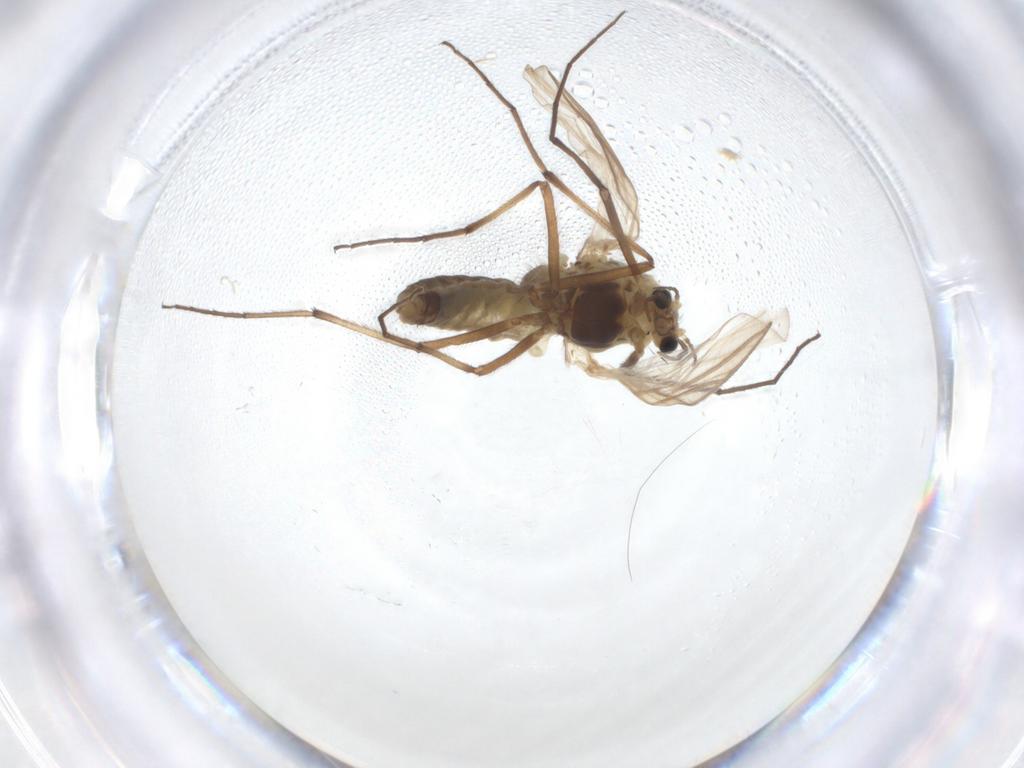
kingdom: Animalia
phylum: Arthropoda
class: Insecta
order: Diptera
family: Chironomidae
